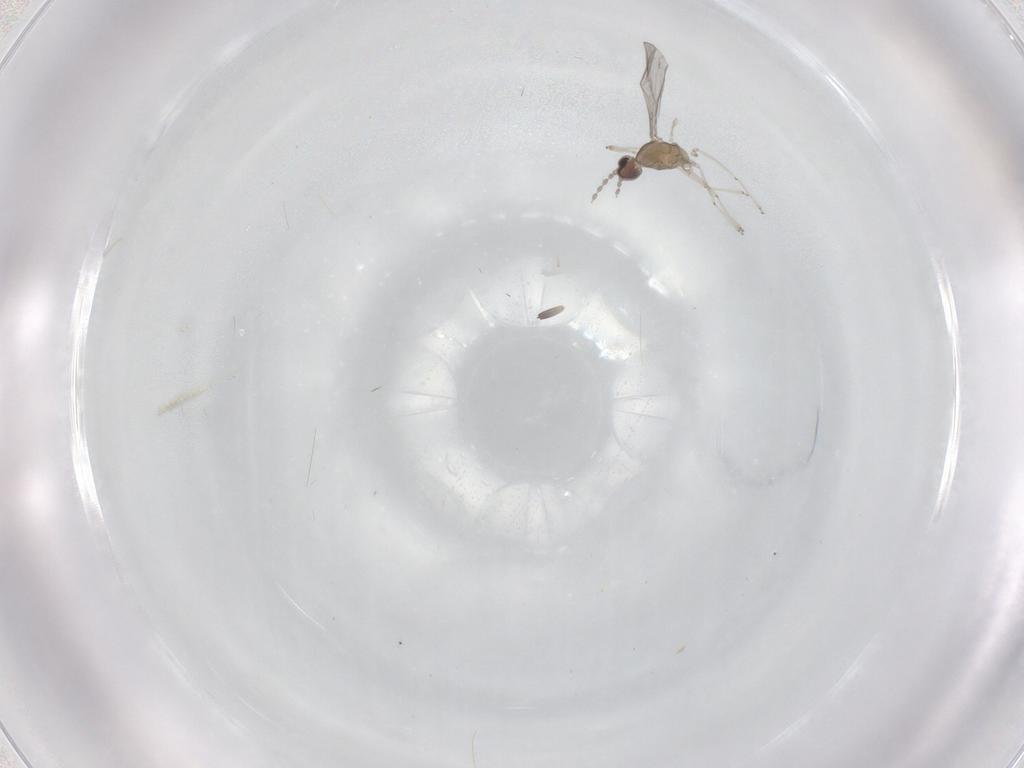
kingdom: Animalia
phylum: Arthropoda
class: Insecta
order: Diptera
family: Cecidomyiidae
